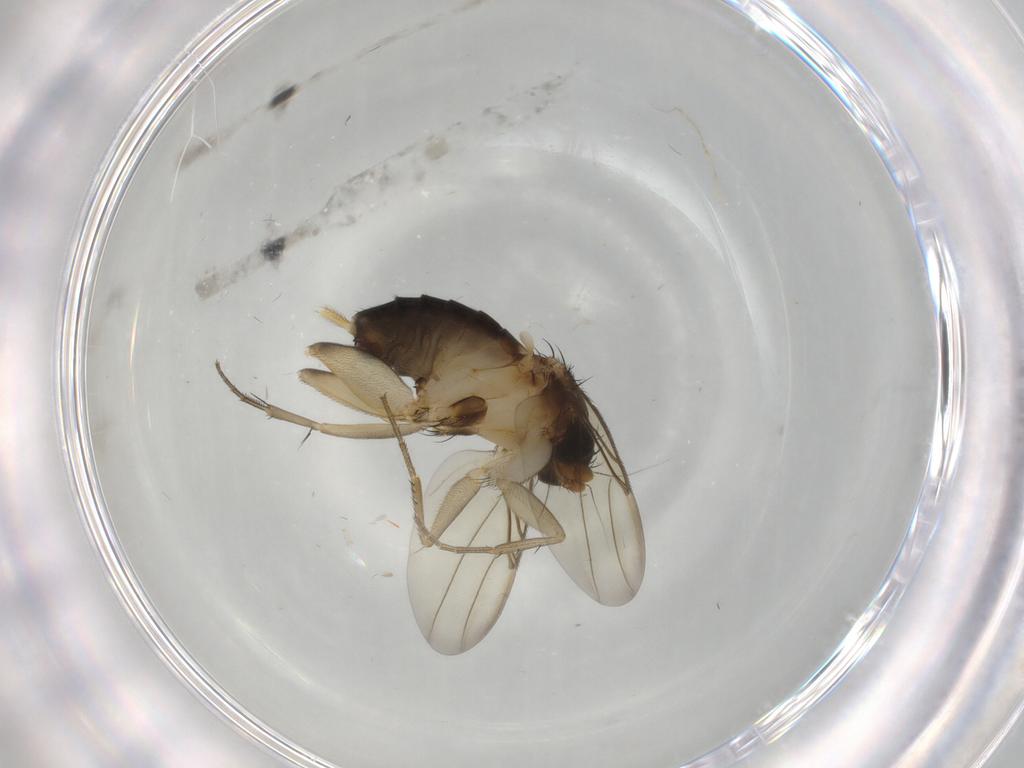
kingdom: Animalia
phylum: Arthropoda
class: Insecta
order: Diptera
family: Phoridae
